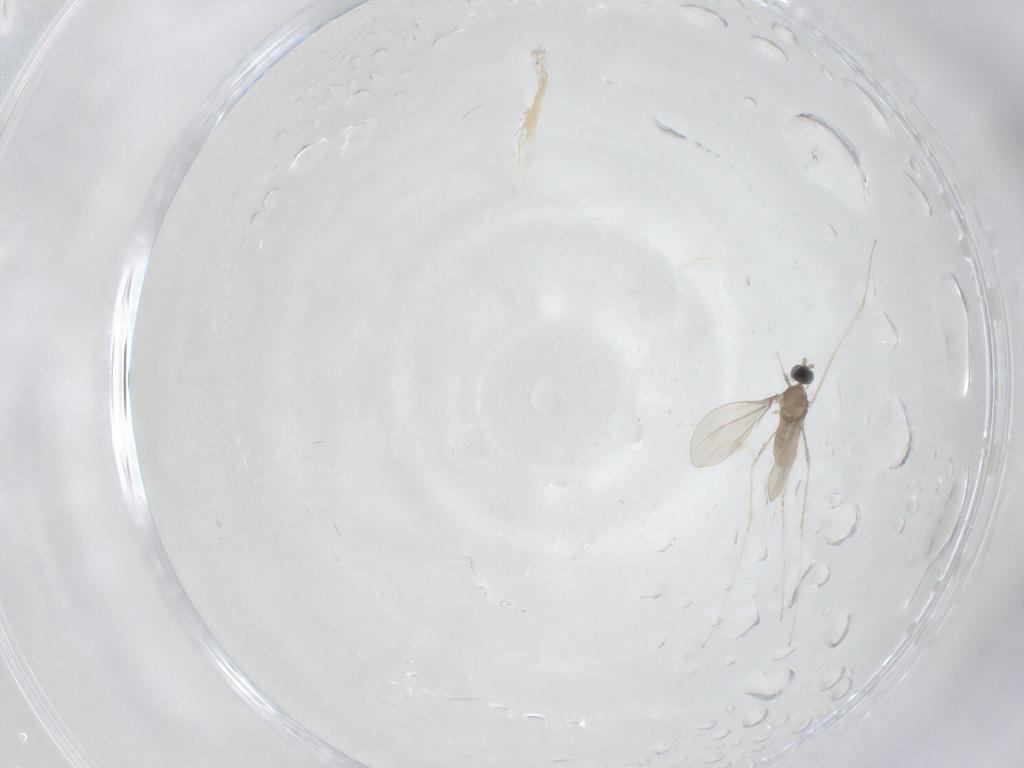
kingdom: Animalia
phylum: Arthropoda
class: Insecta
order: Diptera
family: Cecidomyiidae
